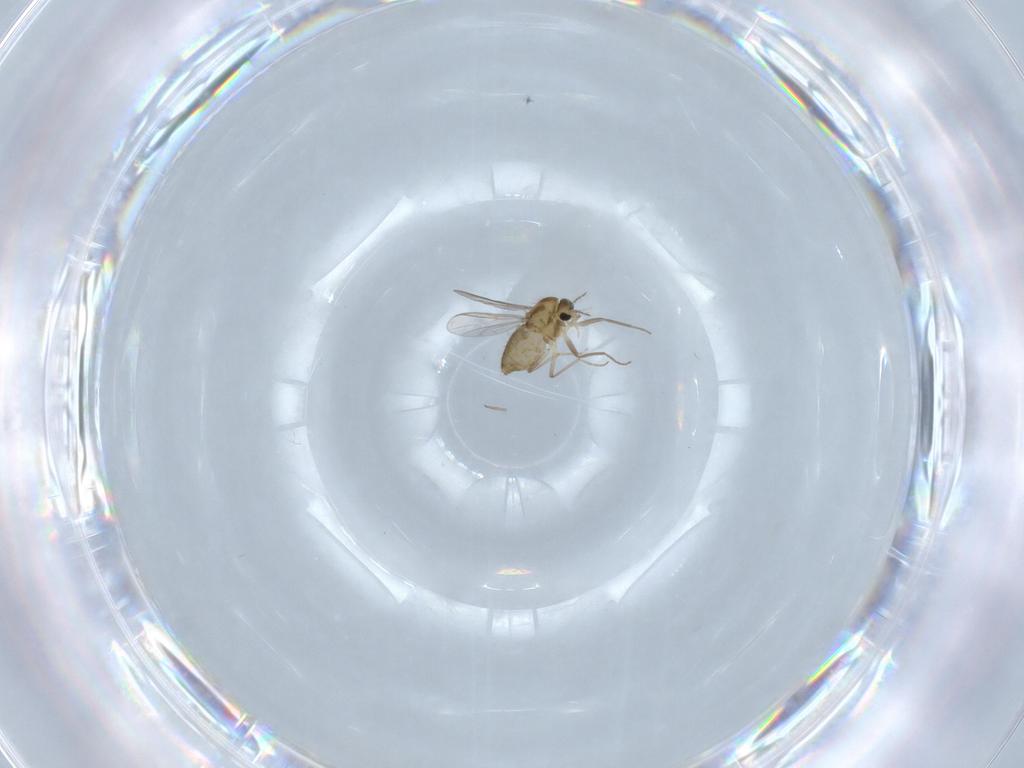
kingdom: Animalia
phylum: Arthropoda
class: Insecta
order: Diptera
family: Chironomidae
